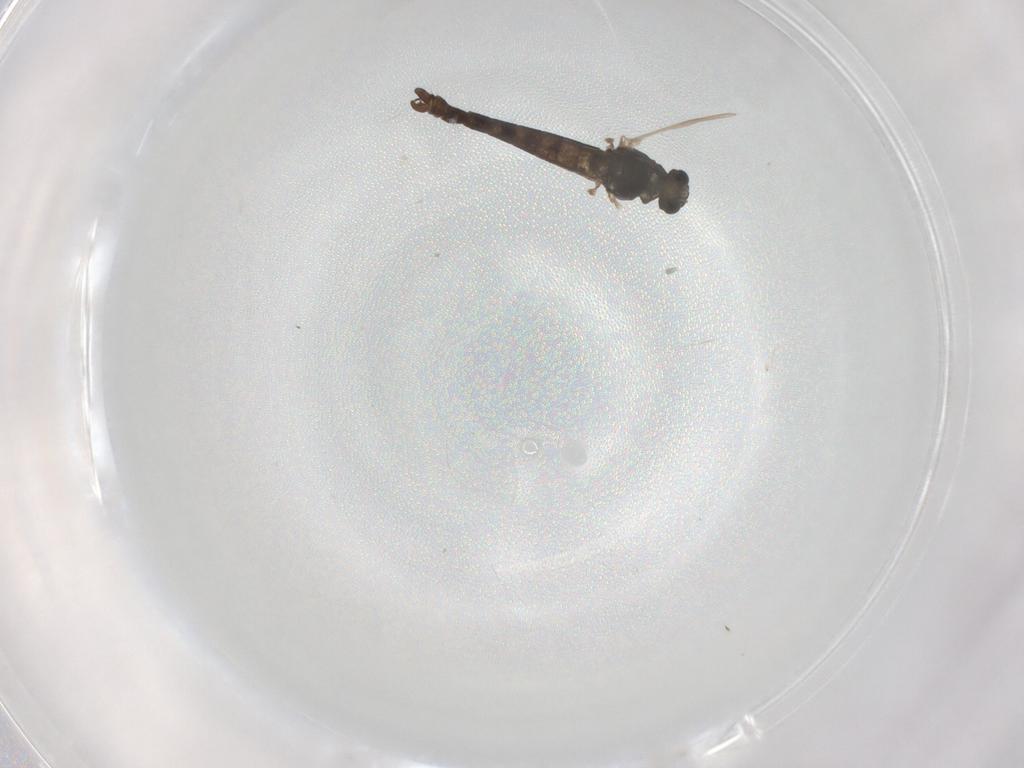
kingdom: Animalia
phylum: Arthropoda
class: Insecta
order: Diptera
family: Chironomidae
